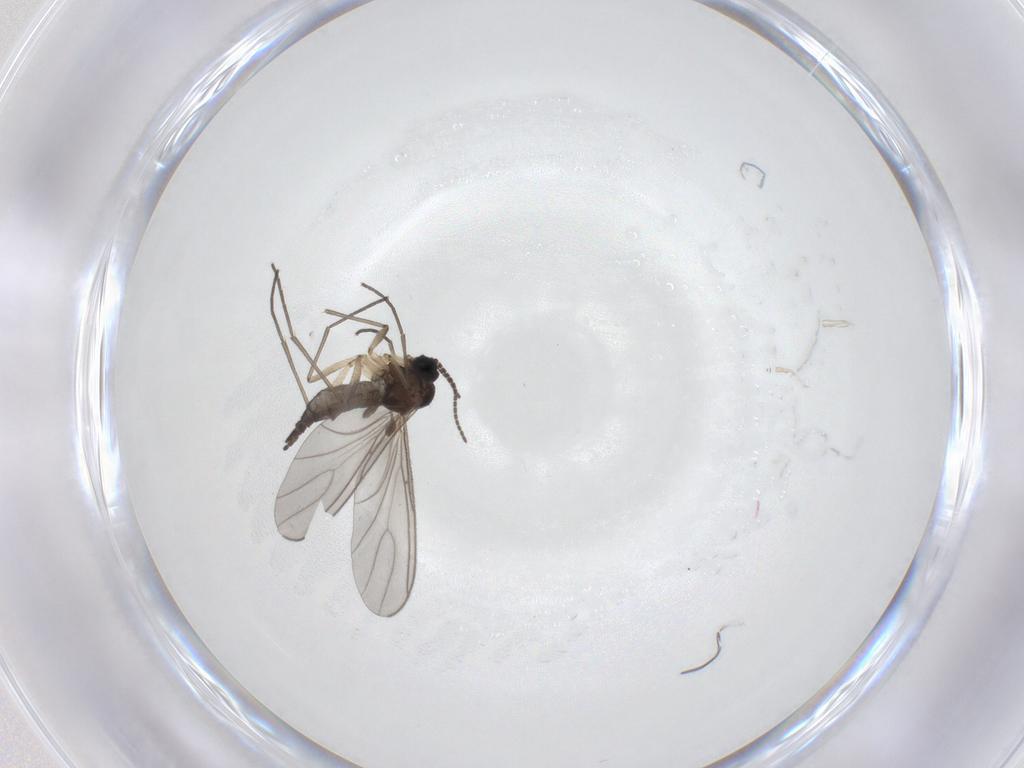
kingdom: Animalia
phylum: Arthropoda
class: Insecta
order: Diptera
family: Sciaridae
